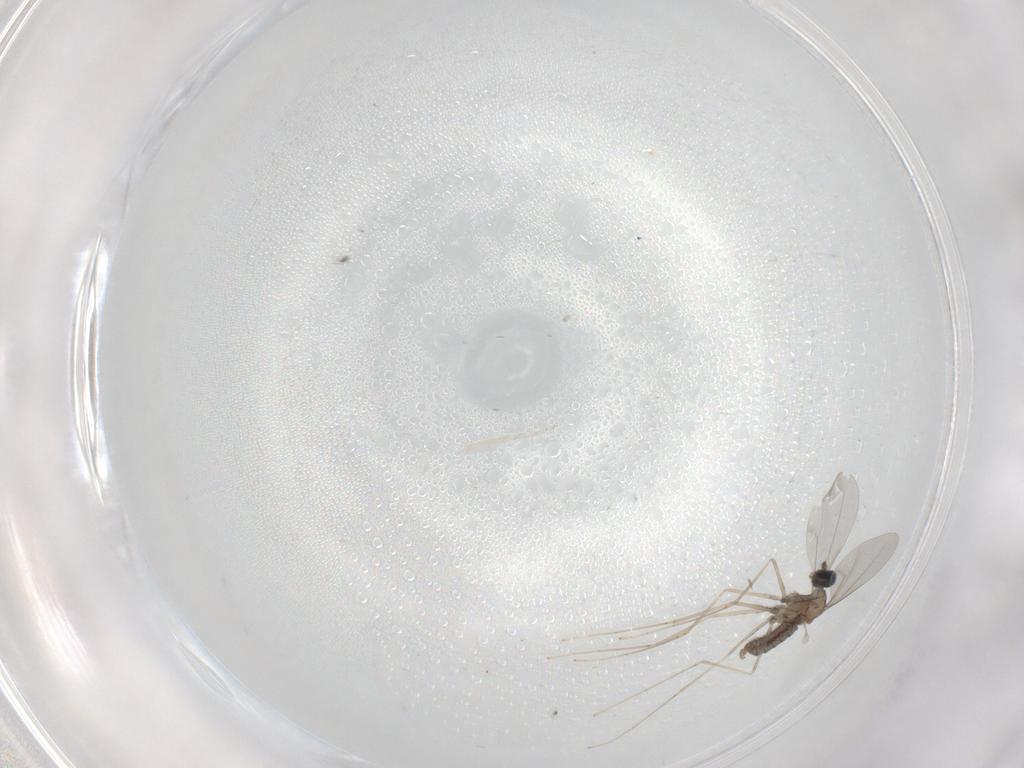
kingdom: Animalia
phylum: Arthropoda
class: Insecta
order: Diptera
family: Cecidomyiidae
